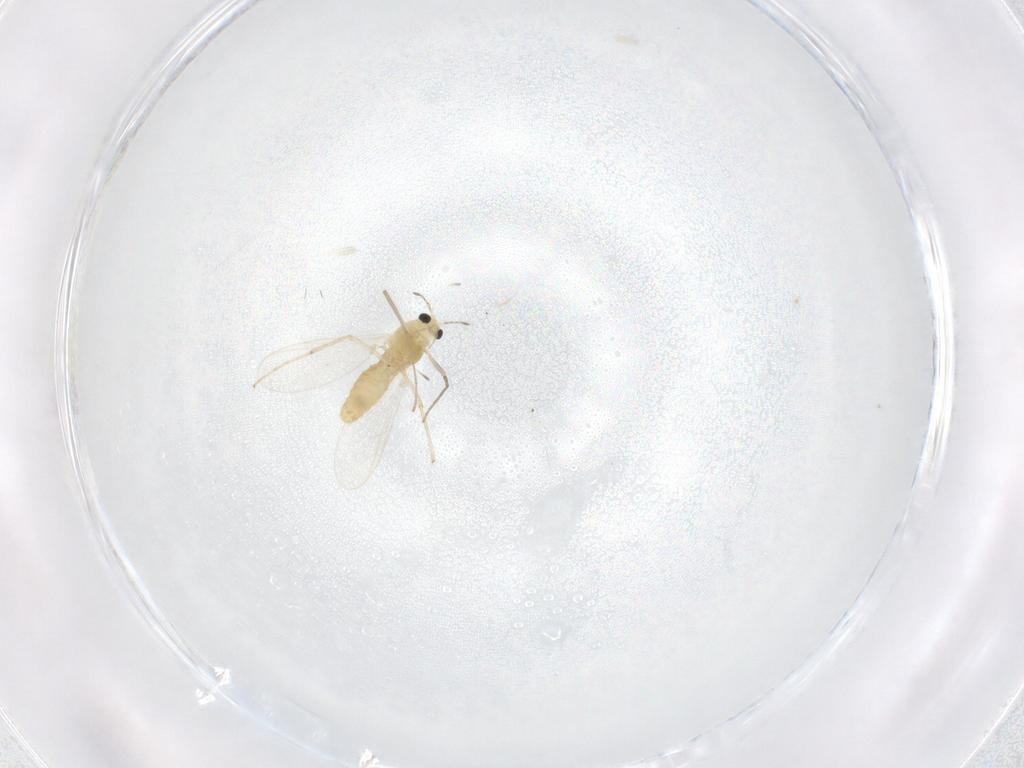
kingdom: Animalia
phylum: Arthropoda
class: Insecta
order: Diptera
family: Chironomidae
